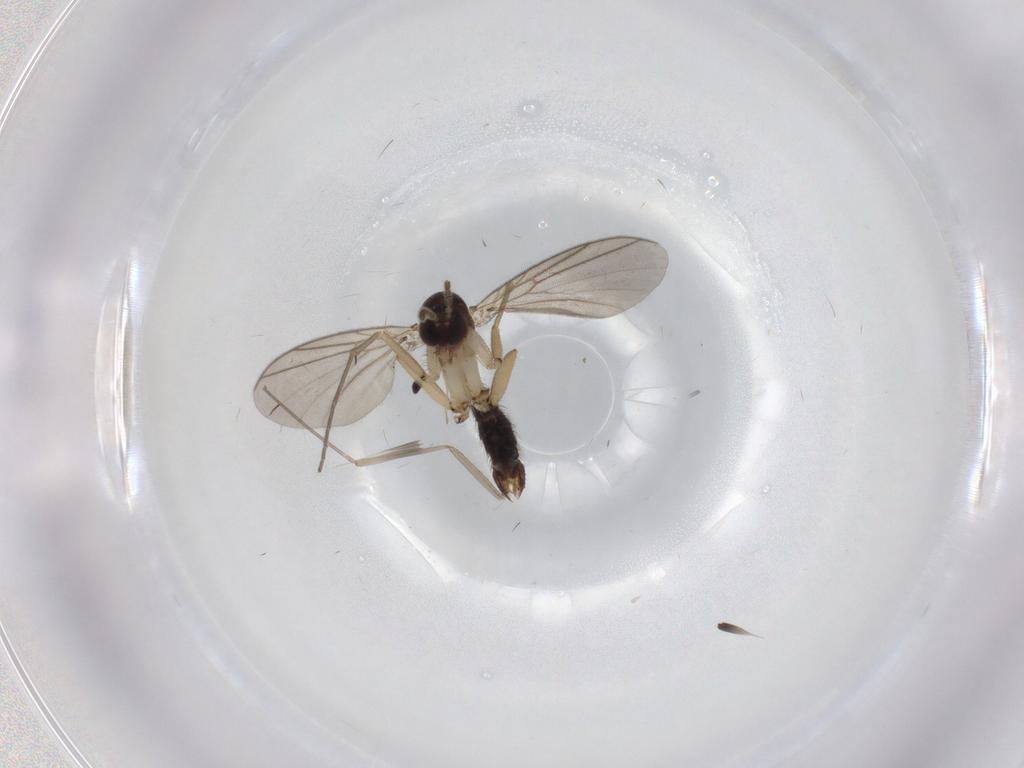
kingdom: Animalia
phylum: Arthropoda
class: Insecta
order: Diptera
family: Mycetophilidae
